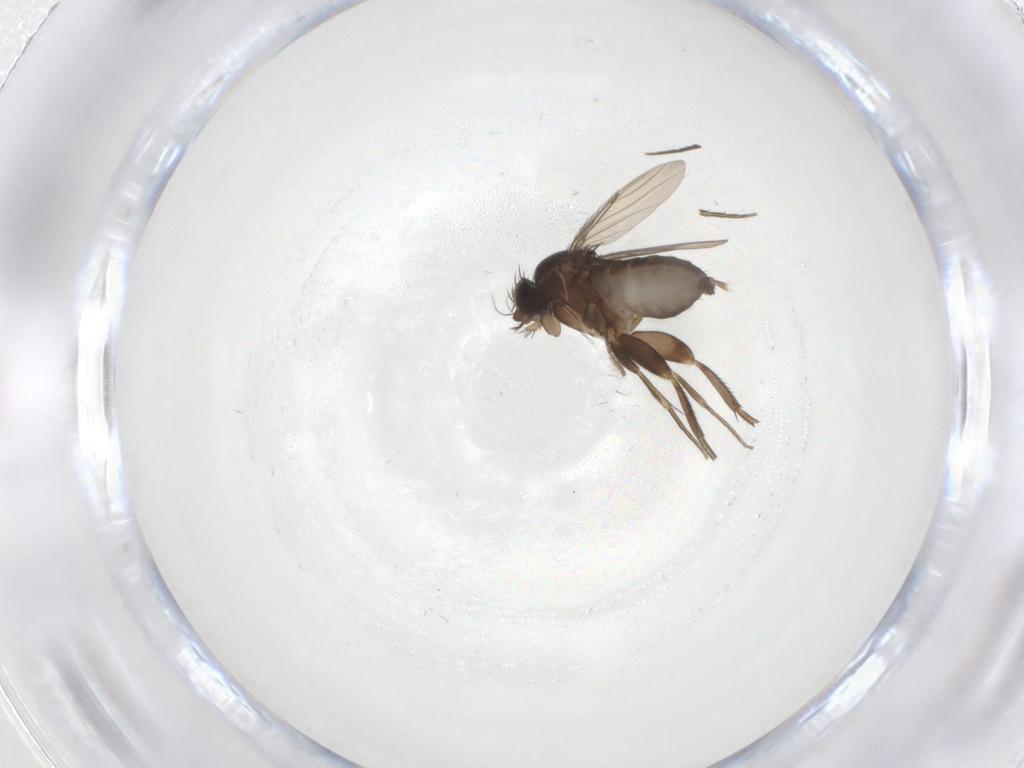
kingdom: Animalia
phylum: Arthropoda
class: Insecta
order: Diptera
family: Phoridae
